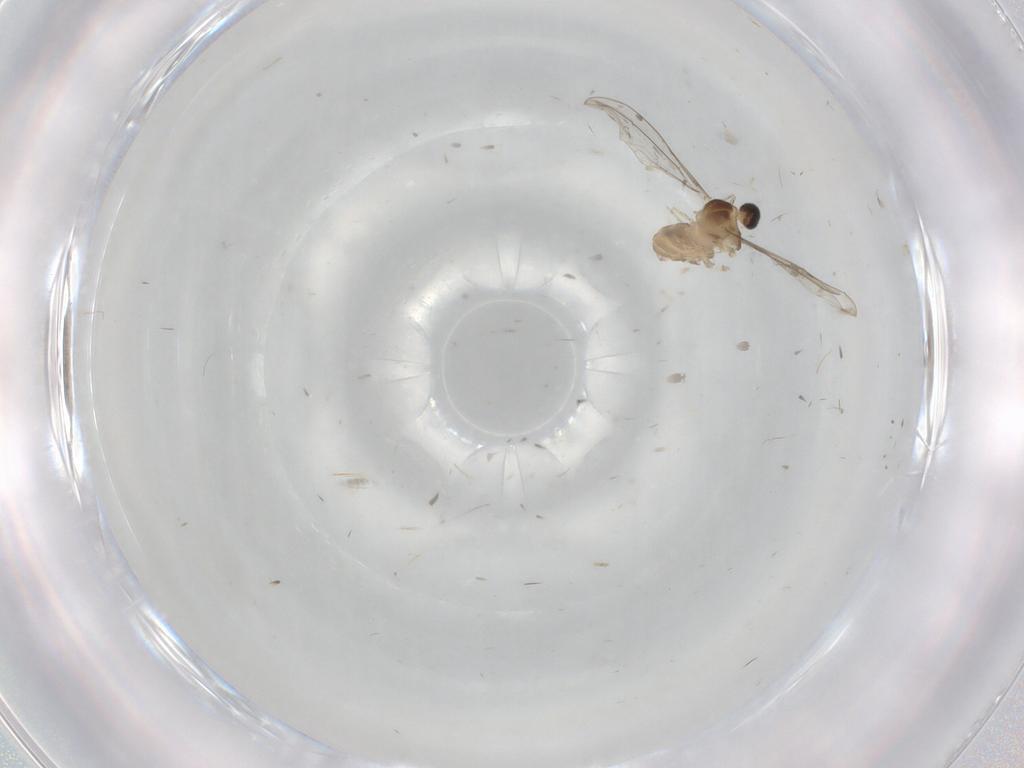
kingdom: Animalia
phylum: Arthropoda
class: Insecta
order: Diptera
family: Cecidomyiidae
